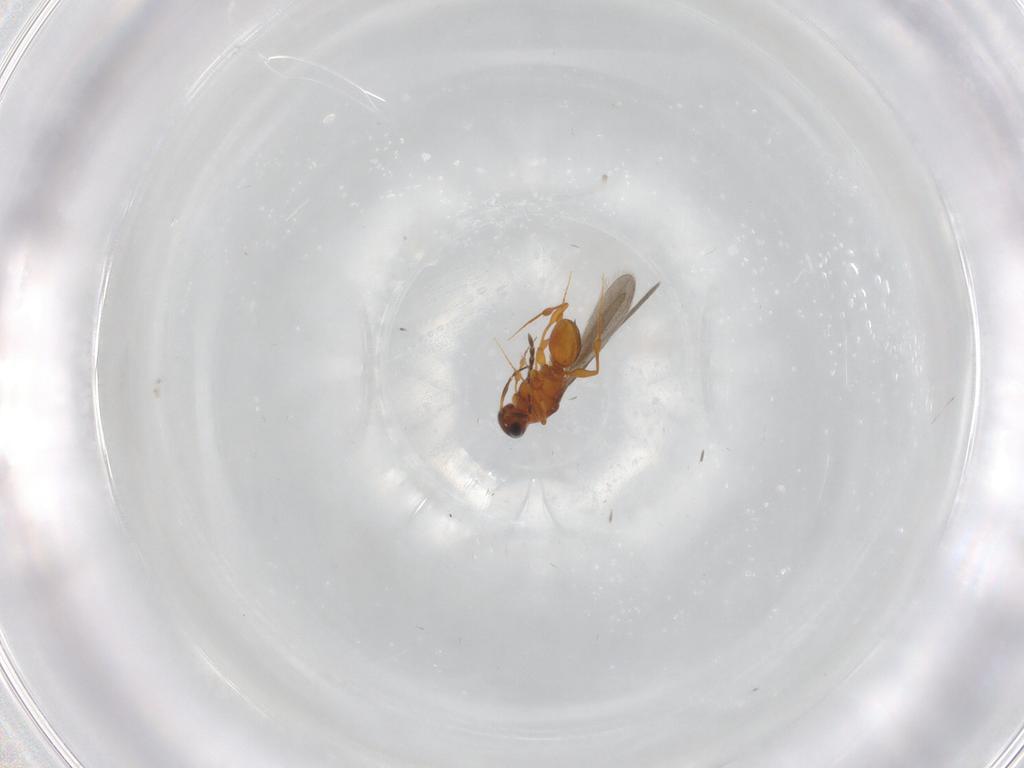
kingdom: Animalia
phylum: Arthropoda
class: Insecta
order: Hymenoptera
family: Platygastridae
